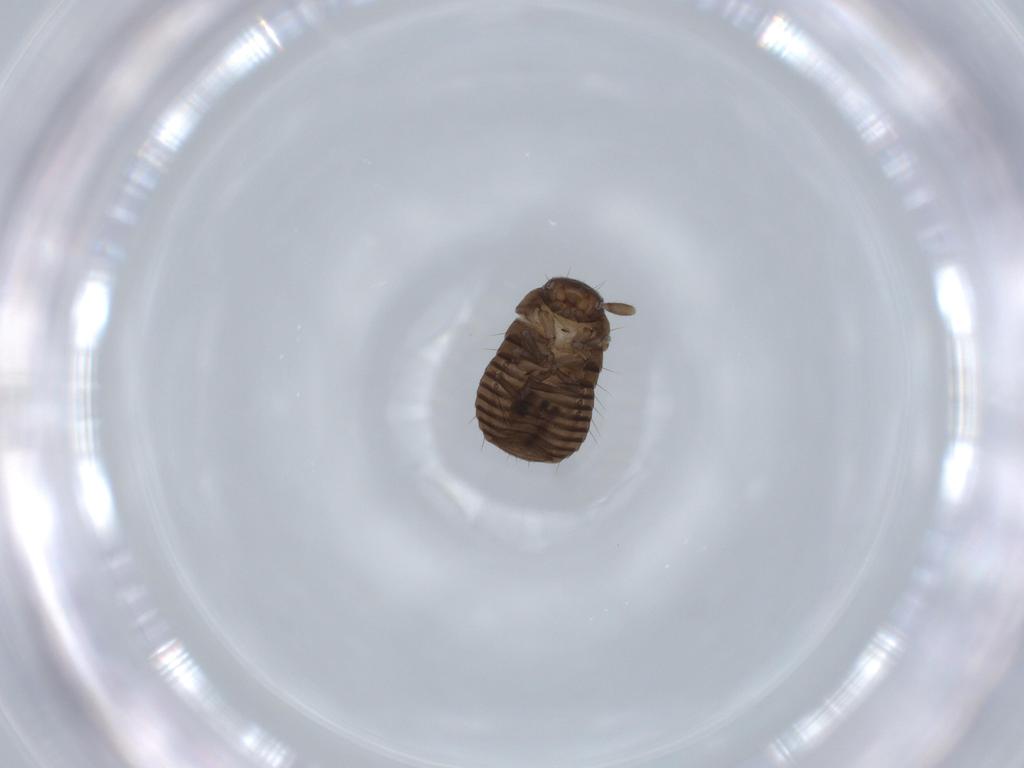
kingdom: Animalia
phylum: Arthropoda
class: Insecta
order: Coleoptera
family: Tenebrionidae
